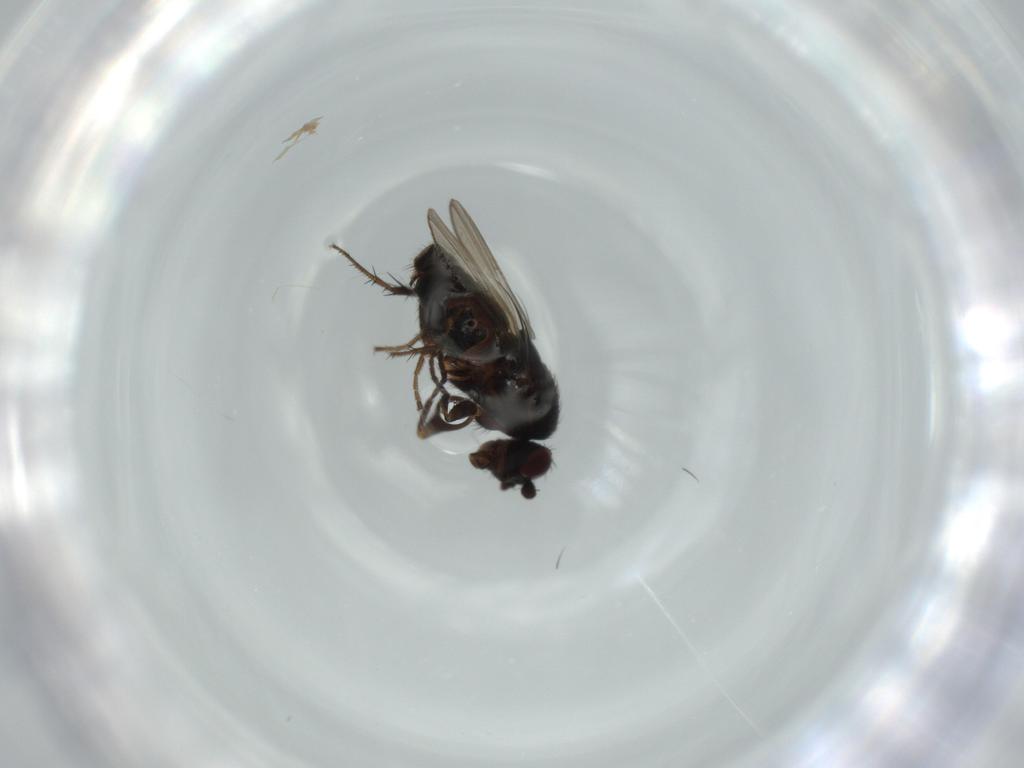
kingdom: Animalia
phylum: Arthropoda
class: Insecta
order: Diptera
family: Sphaeroceridae
